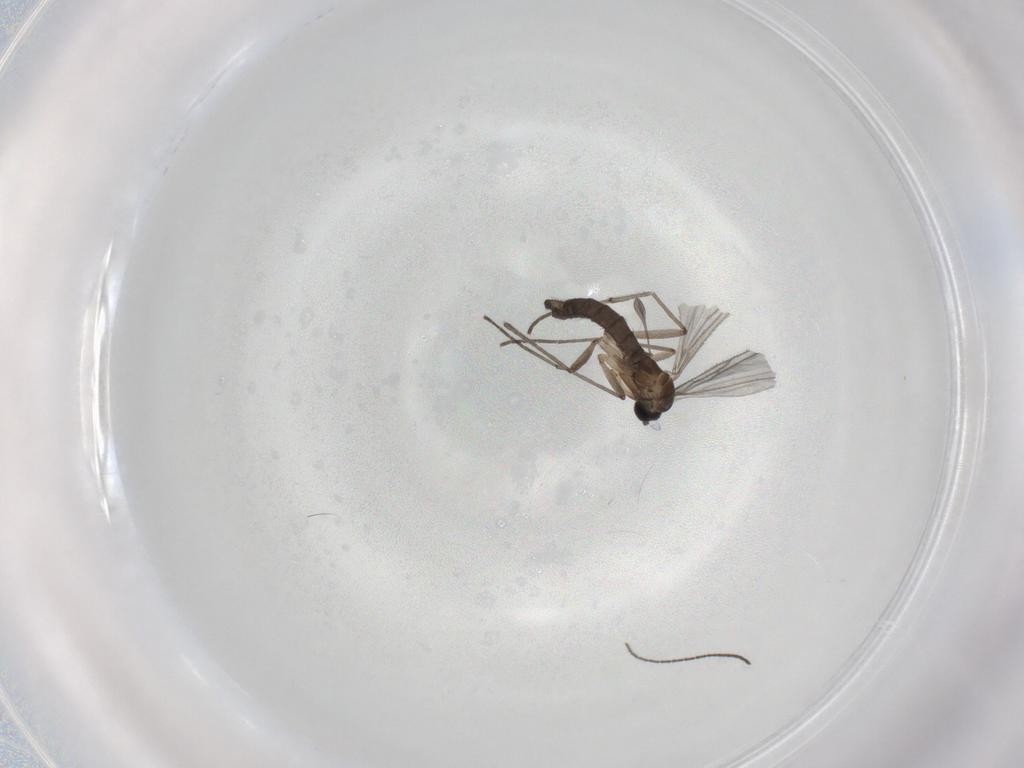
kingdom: Animalia
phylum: Arthropoda
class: Insecta
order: Diptera
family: Sciaridae
